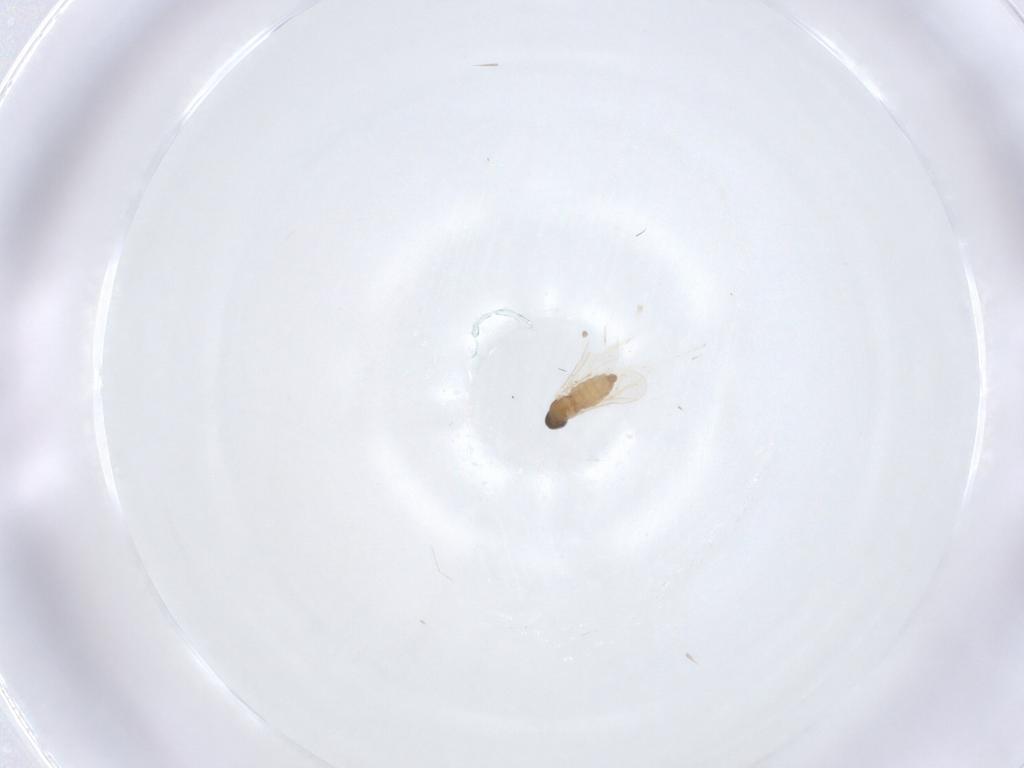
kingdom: Animalia
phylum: Arthropoda
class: Insecta
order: Diptera
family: Cecidomyiidae
